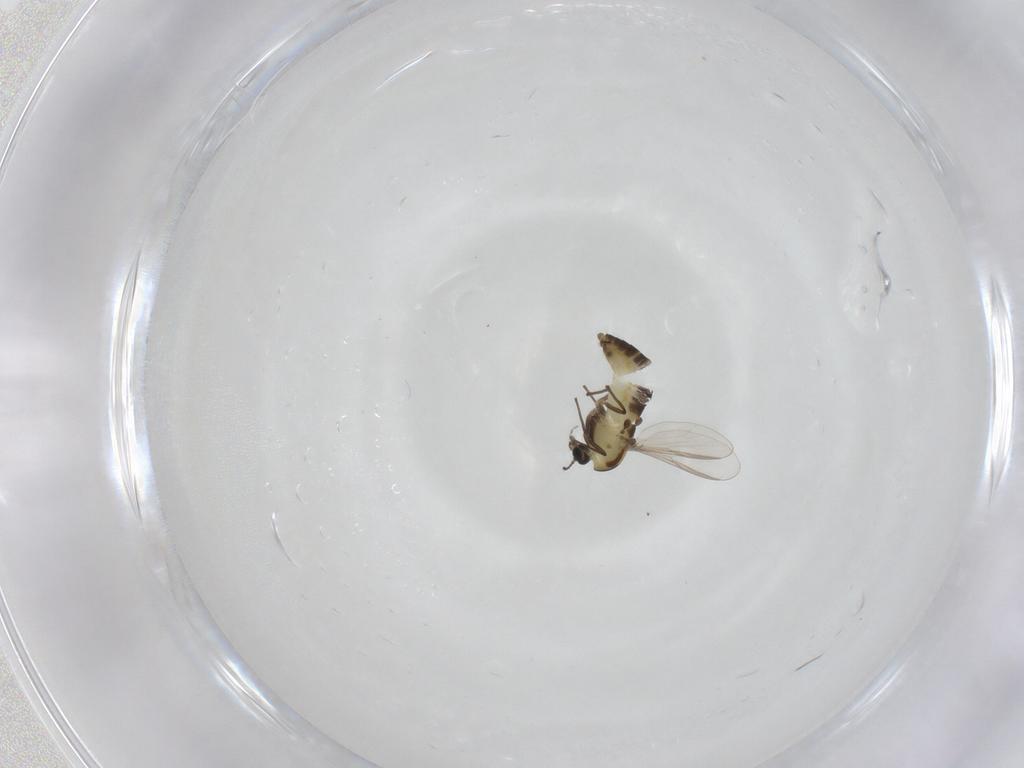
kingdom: Animalia
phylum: Arthropoda
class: Insecta
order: Diptera
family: Chironomidae
